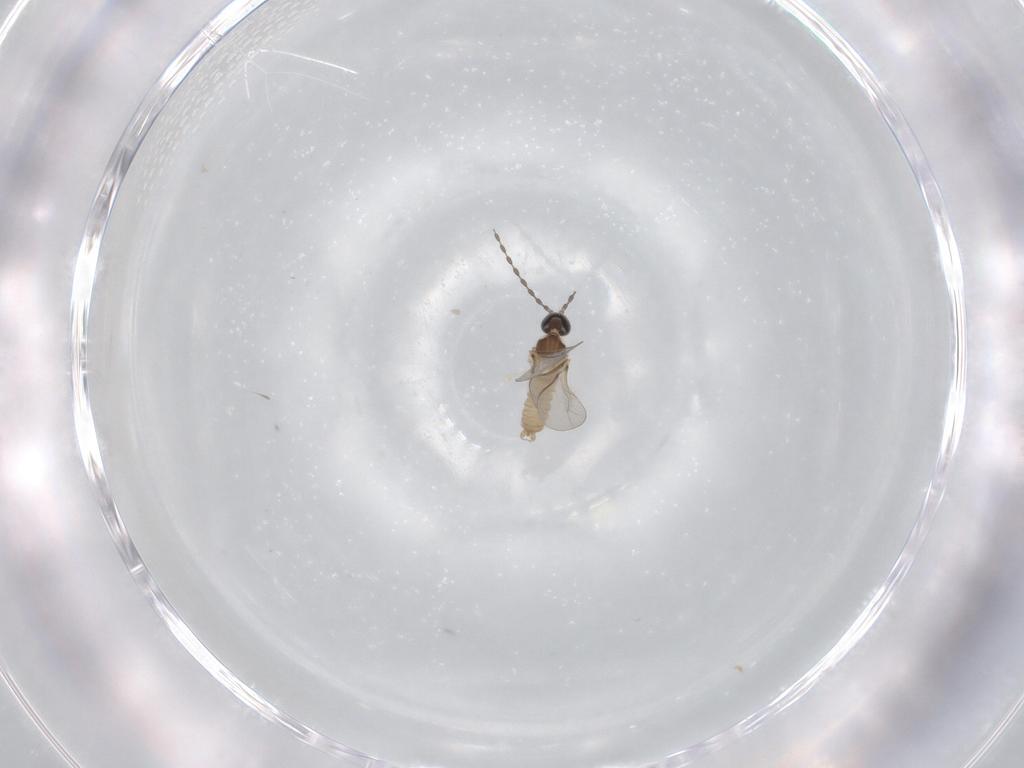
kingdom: Animalia
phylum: Arthropoda
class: Insecta
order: Diptera
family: Cecidomyiidae
